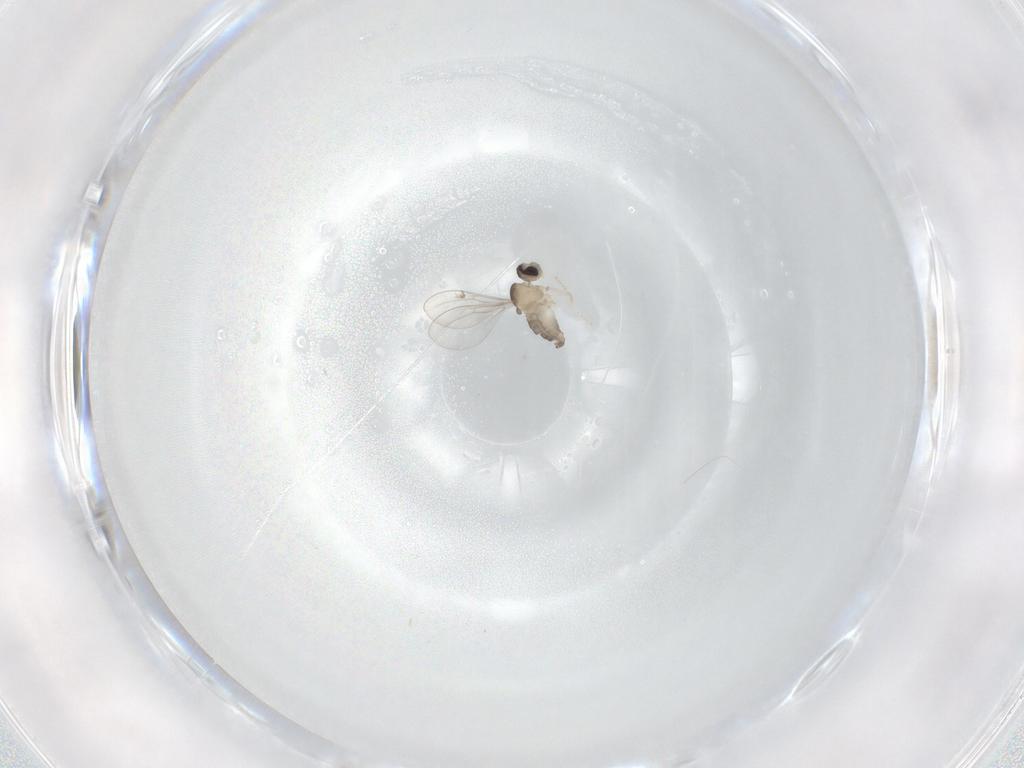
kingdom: Animalia
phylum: Arthropoda
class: Insecta
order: Diptera
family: Cecidomyiidae
